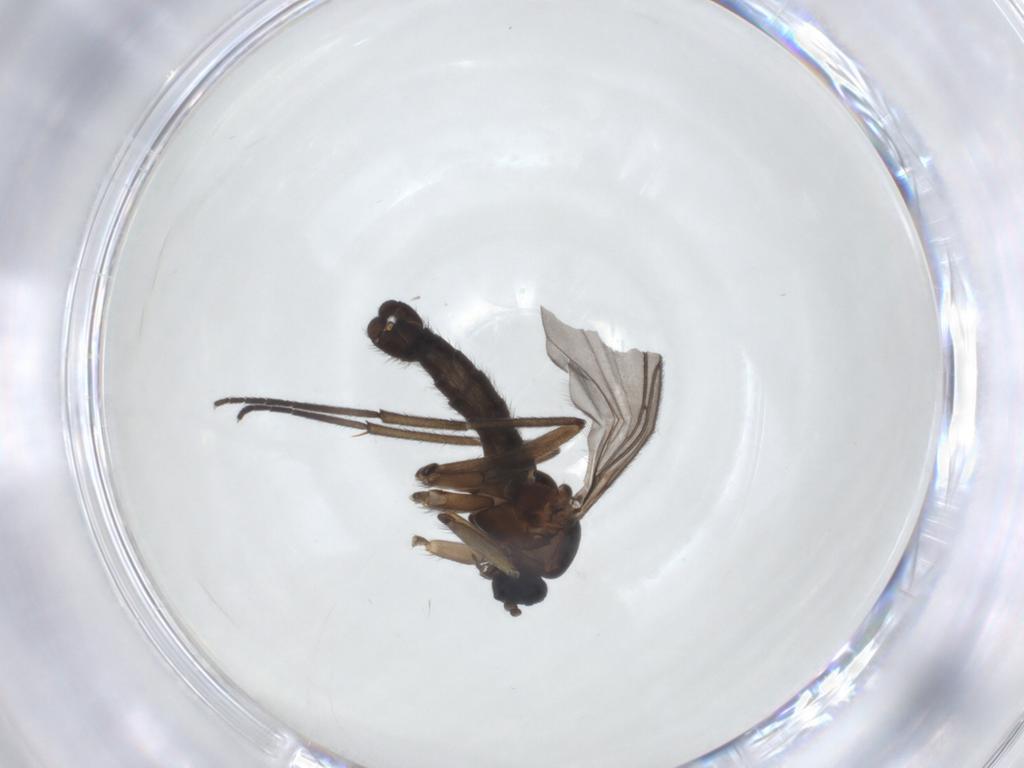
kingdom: Animalia
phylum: Arthropoda
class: Insecta
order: Diptera
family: Sciaridae
